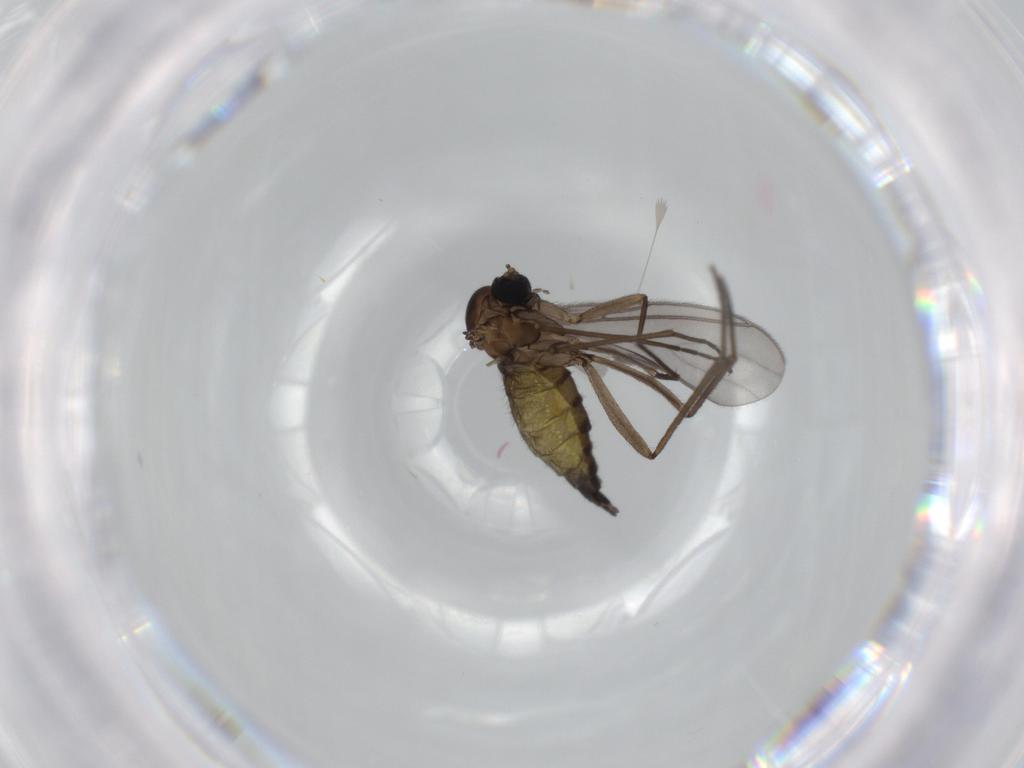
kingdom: Animalia
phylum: Arthropoda
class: Insecta
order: Diptera
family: Sciaridae
